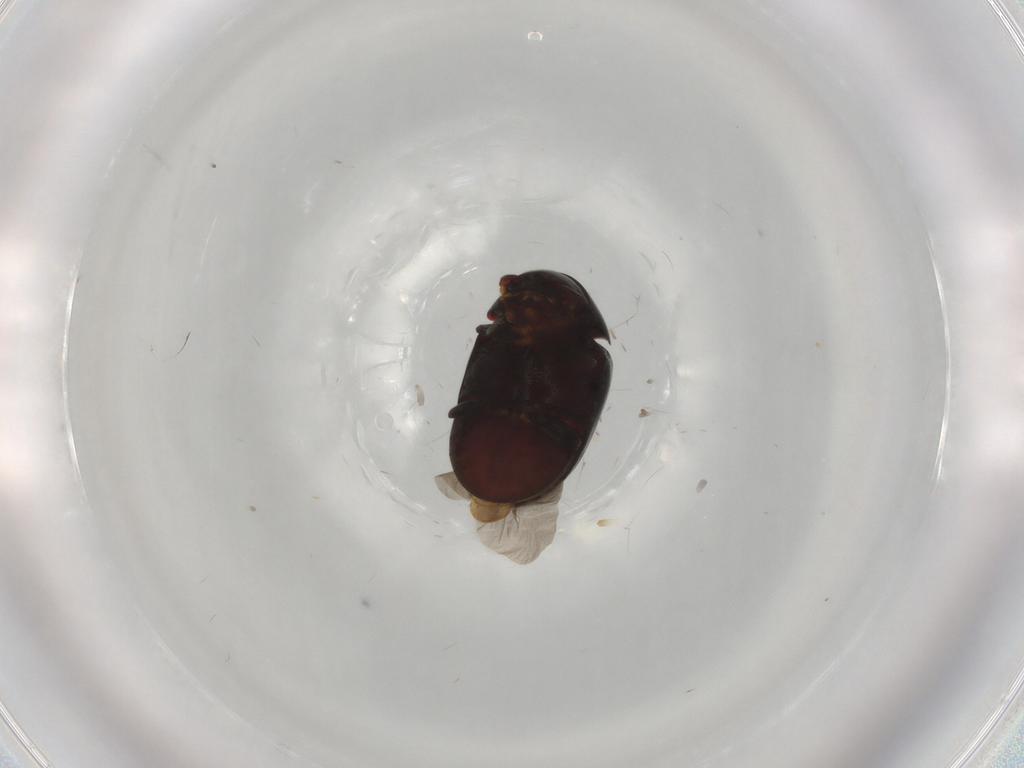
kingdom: Animalia
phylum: Arthropoda
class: Insecta
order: Coleoptera
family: Ptinidae
